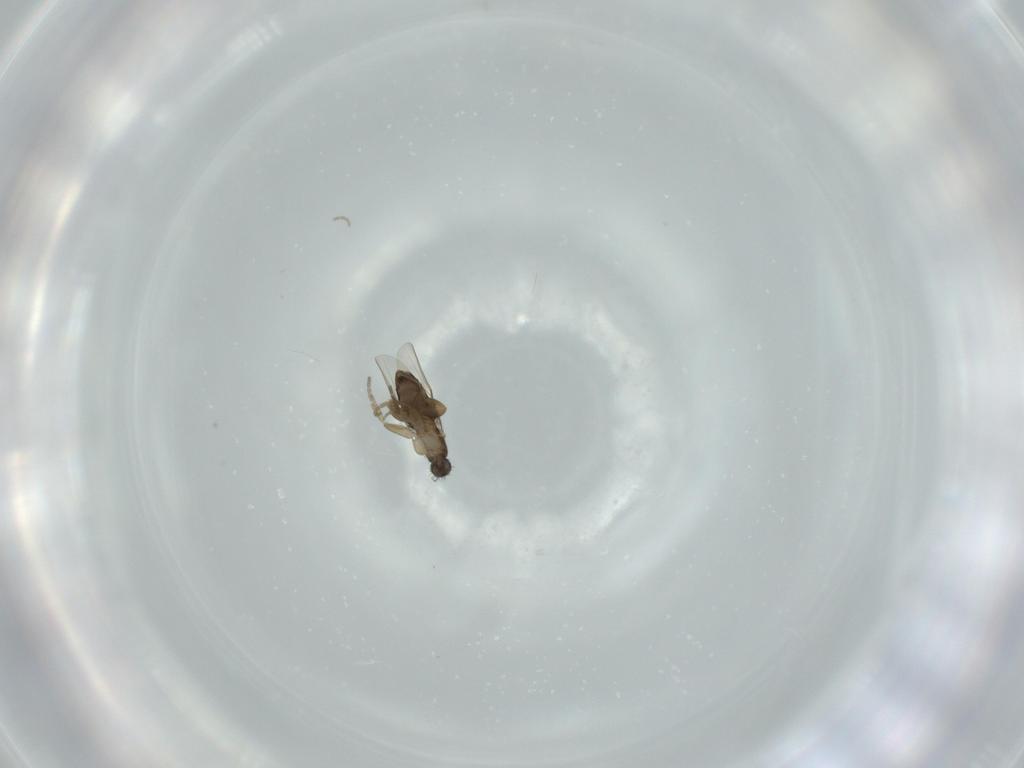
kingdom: Animalia
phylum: Arthropoda
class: Insecta
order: Diptera
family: Phoridae
